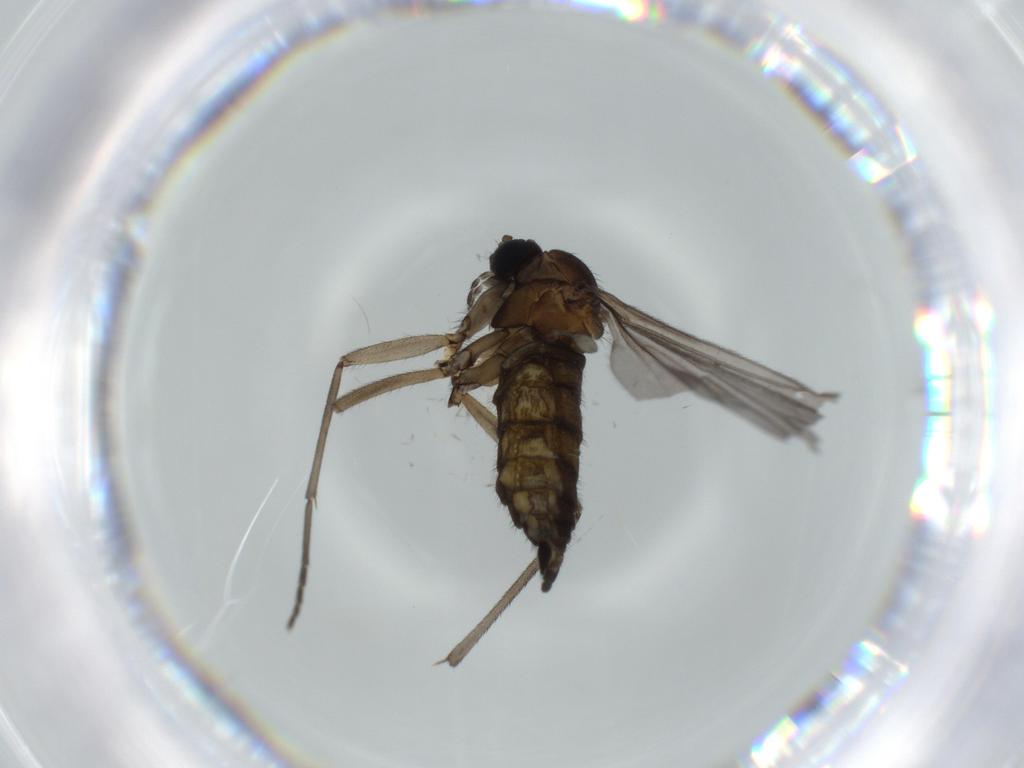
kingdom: Animalia
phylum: Arthropoda
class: Insecta
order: Diptera
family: Sciaridae
